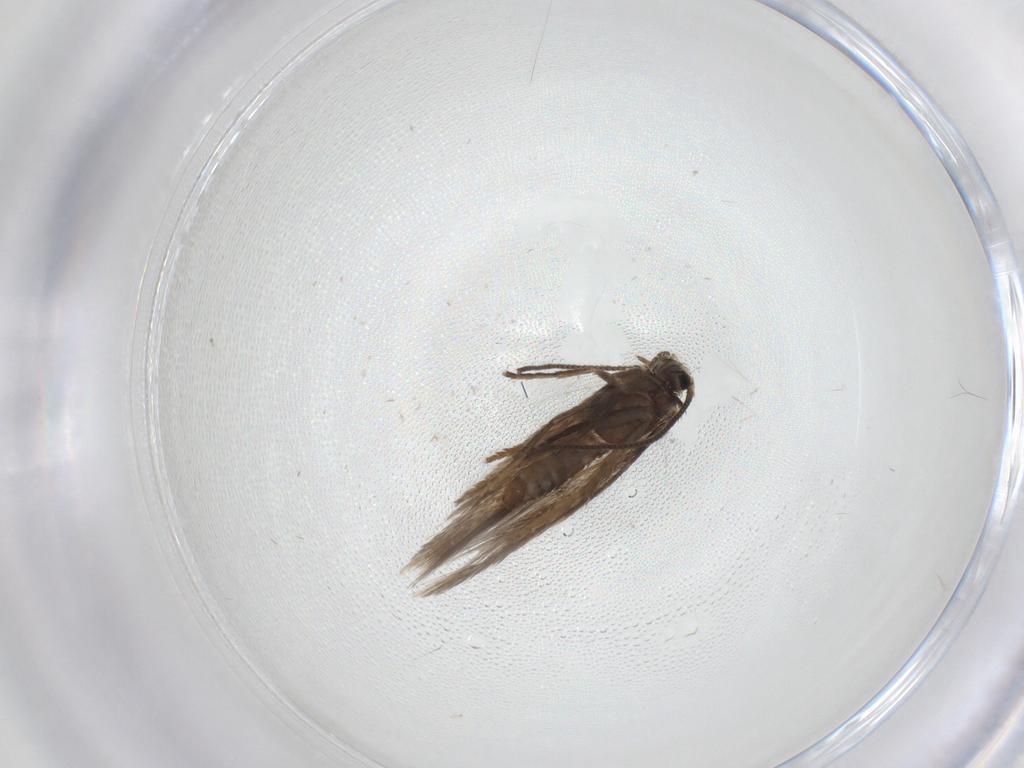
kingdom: Animalia
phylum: Arthropoda
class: Insecta
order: Lepidoptera
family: Nepticulidae
